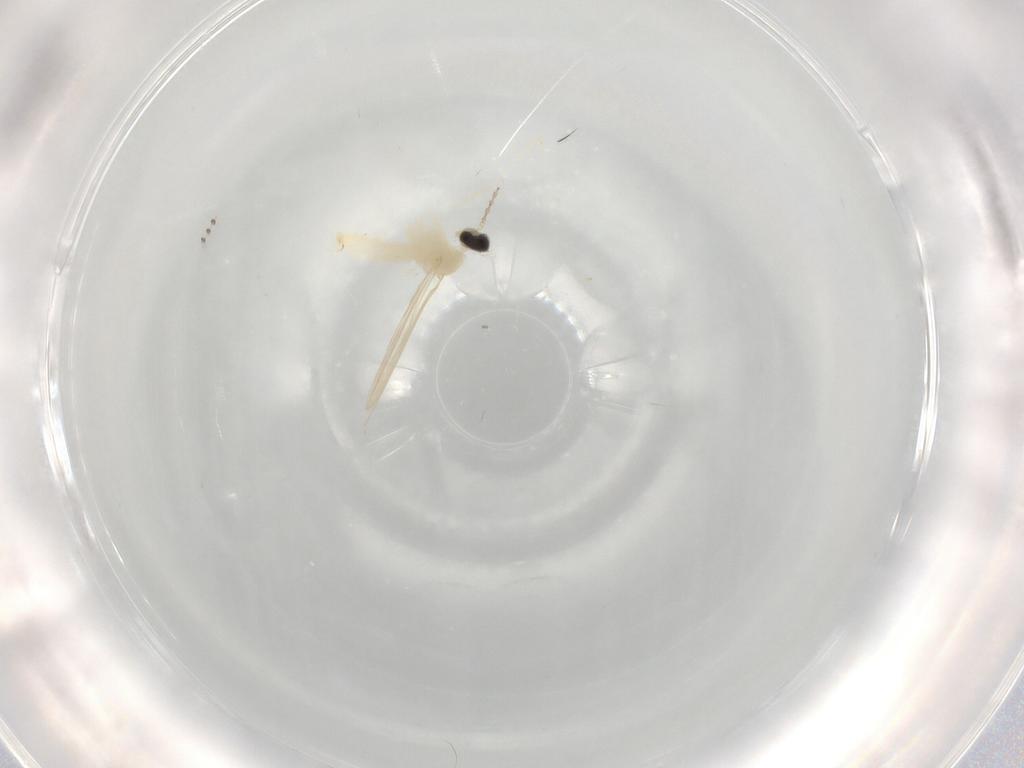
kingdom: Animalia
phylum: Arthropoda
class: Insecta
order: Diptera
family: Cecidomyiidae
